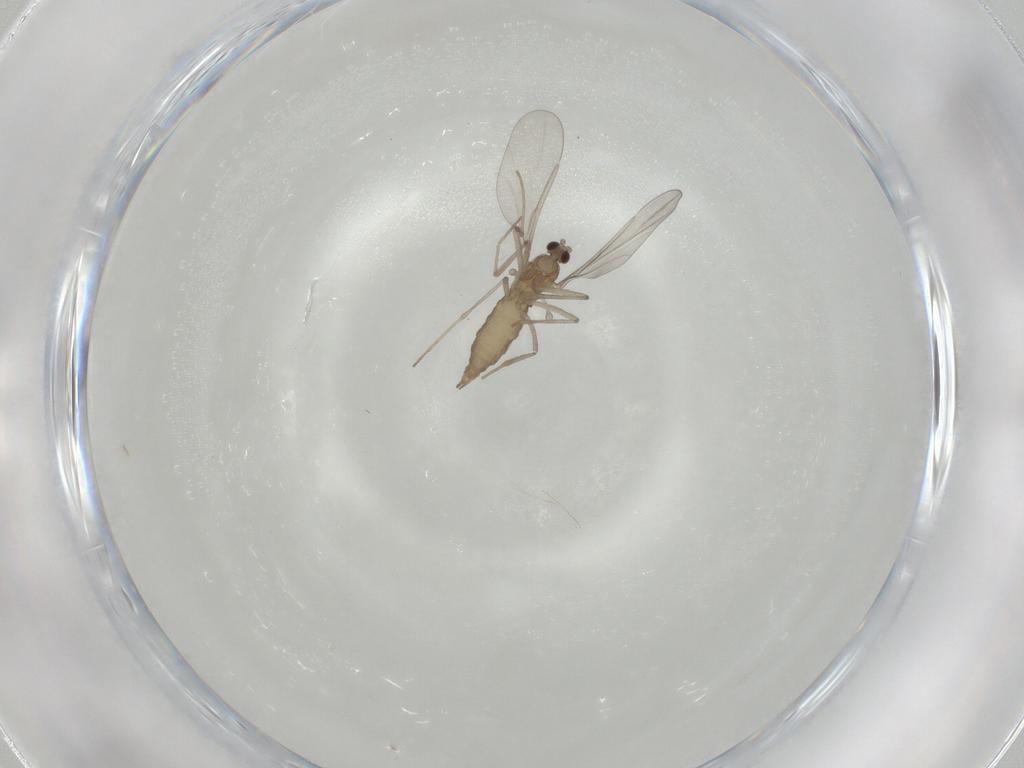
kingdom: Animalia
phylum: Arthropoda
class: Insecta
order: Diptera
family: Cecidomyiidae
